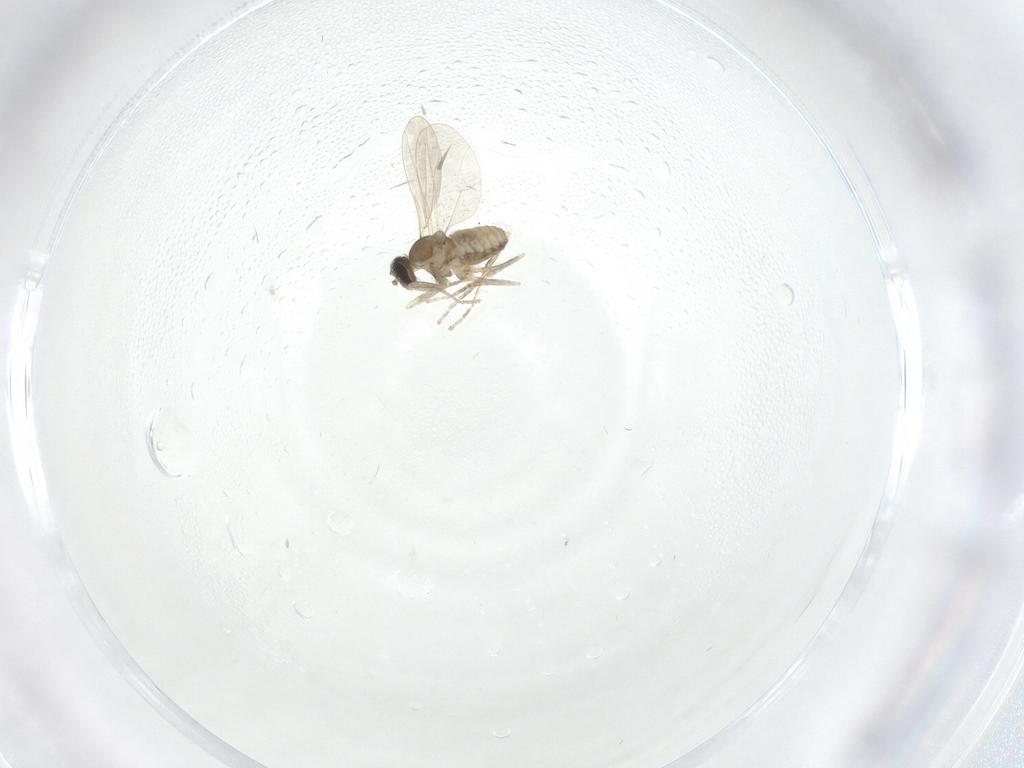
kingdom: Animalia
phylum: Arthropoda
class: Insecta
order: Diptera
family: Cecidomyiidae
